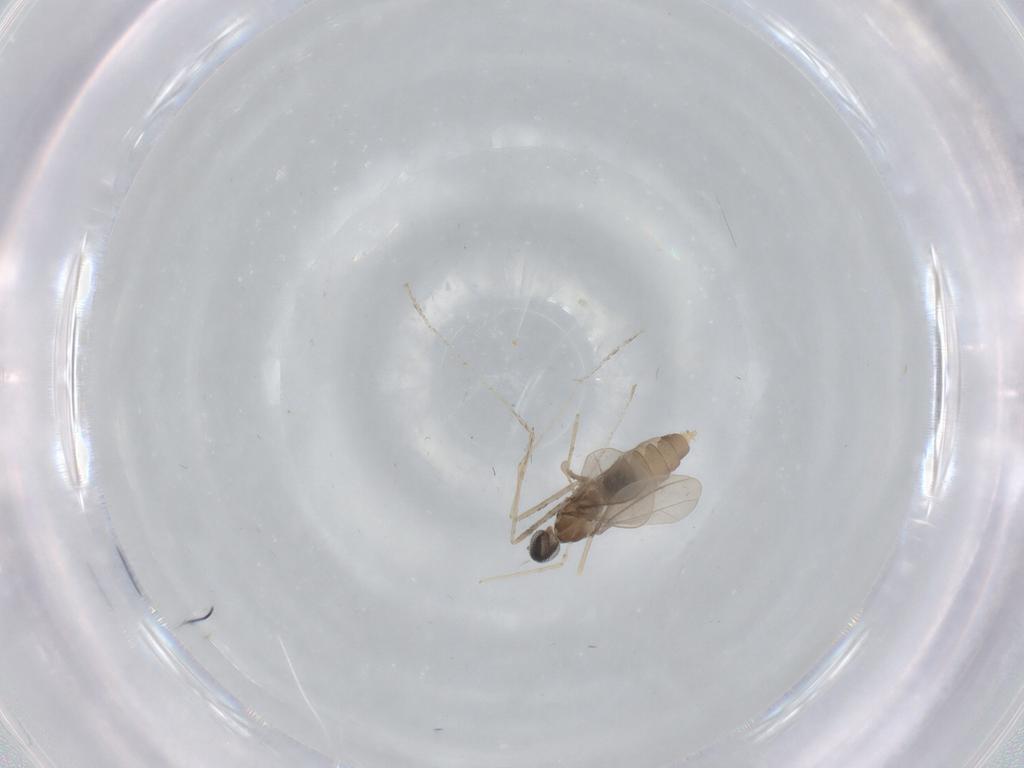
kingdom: Animalia
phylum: Arthropoda
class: Insecta
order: Diptera
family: Cecidomyiidae
